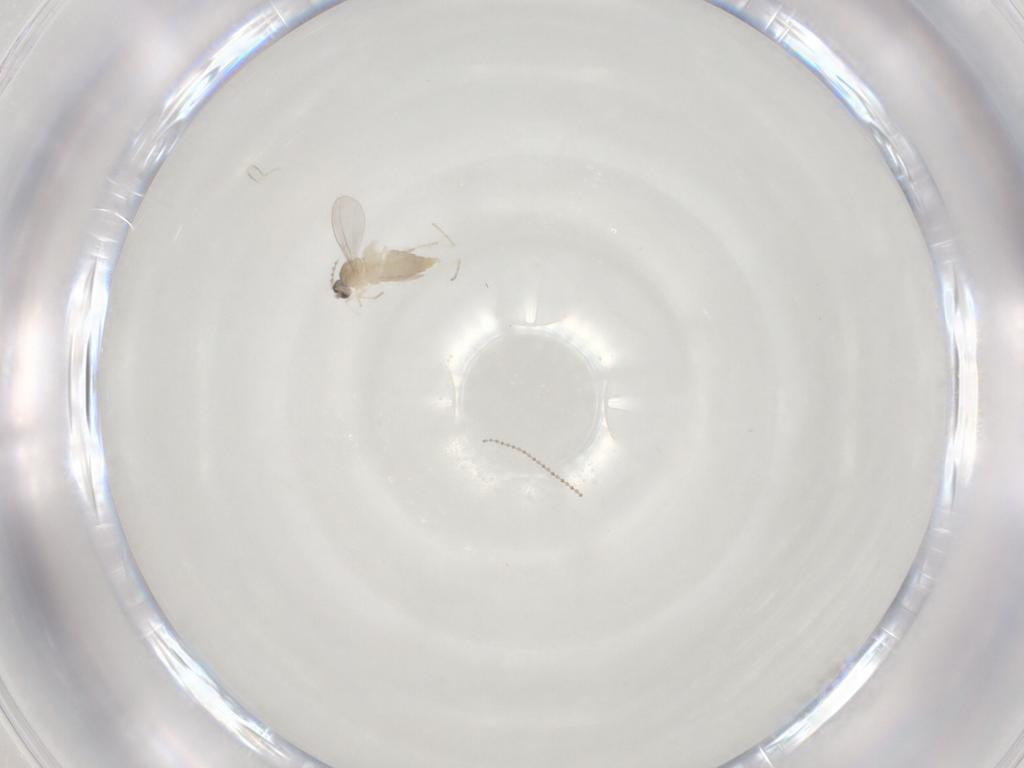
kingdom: Animalia
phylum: Arthropoda
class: Insecta
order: Diptera
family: Cecidomyiidae
